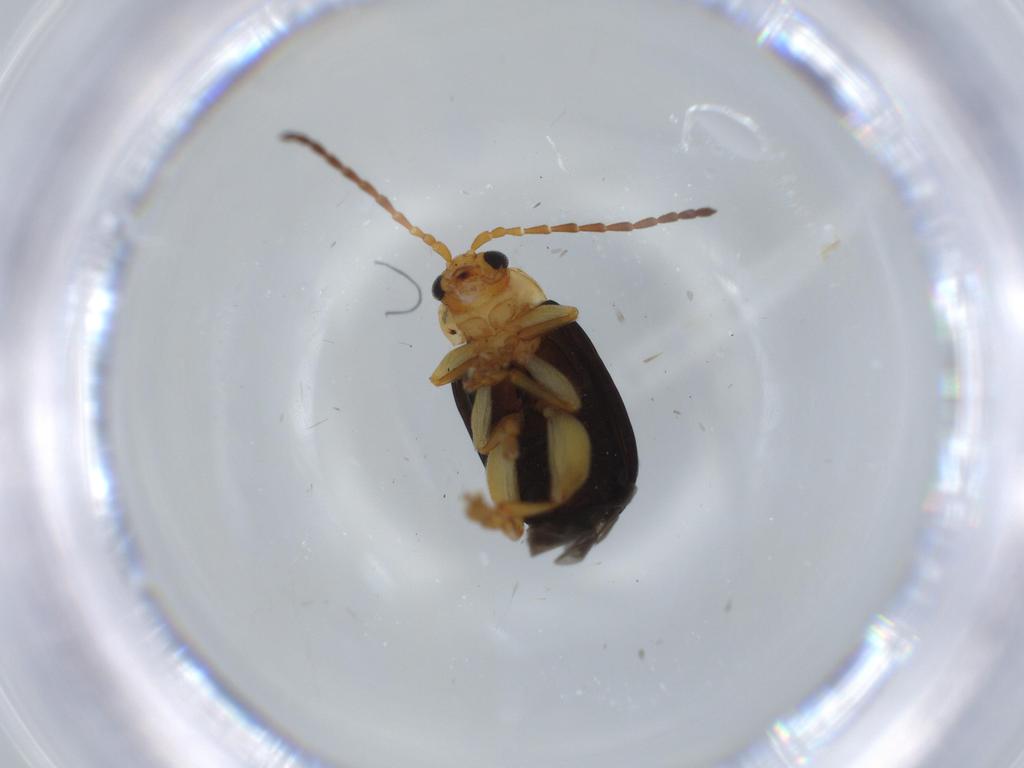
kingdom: Animalia
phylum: Arthropoda
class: Insecta
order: Coleoptera
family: Chrysomelidae
